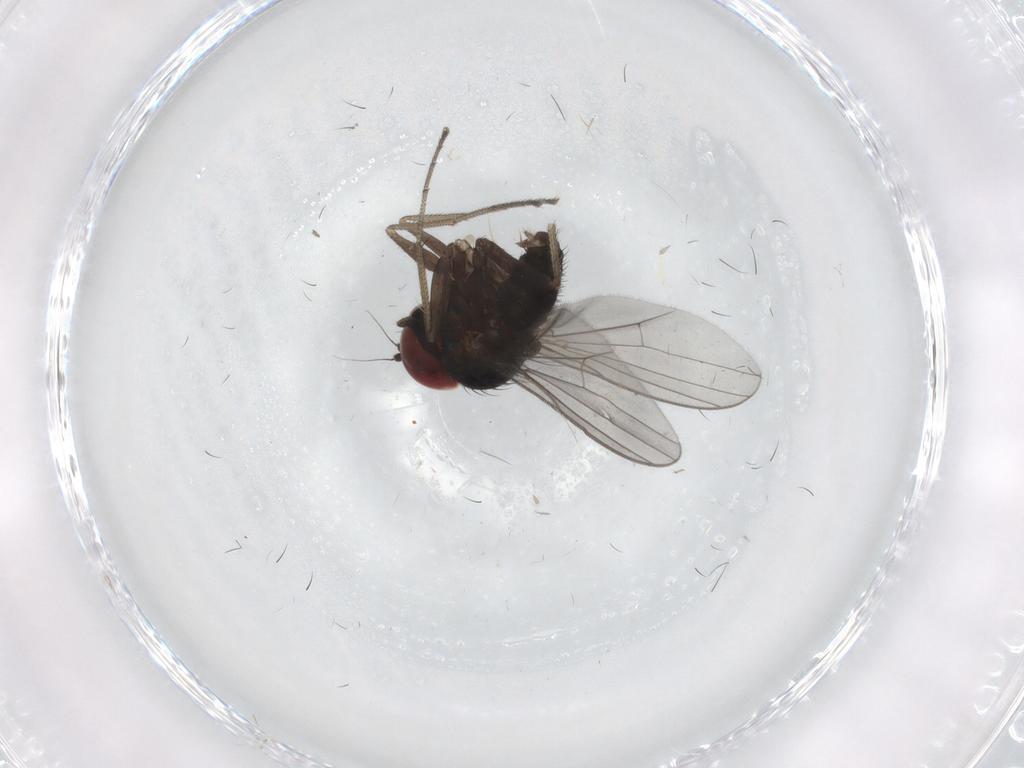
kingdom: Animalia
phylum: Arthropoda
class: Insecta
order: Diptera
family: Dolichopodidae
